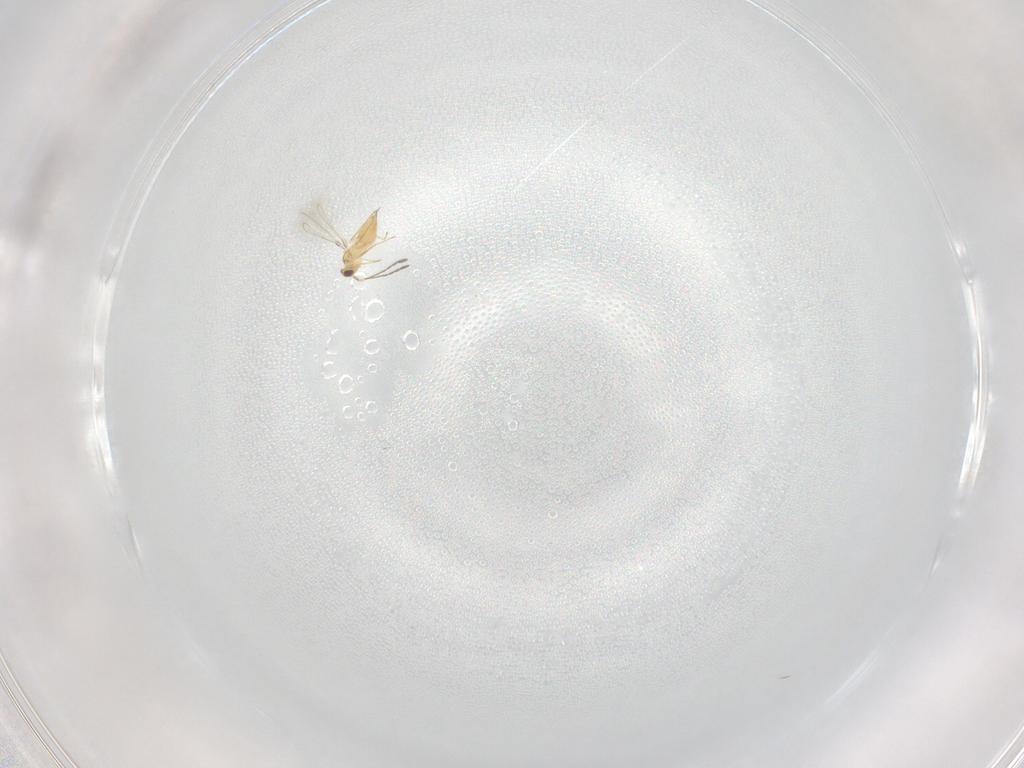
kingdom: Animalia
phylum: Arthropoda
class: Insecta
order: Hymenoptera
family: Mymaridae
